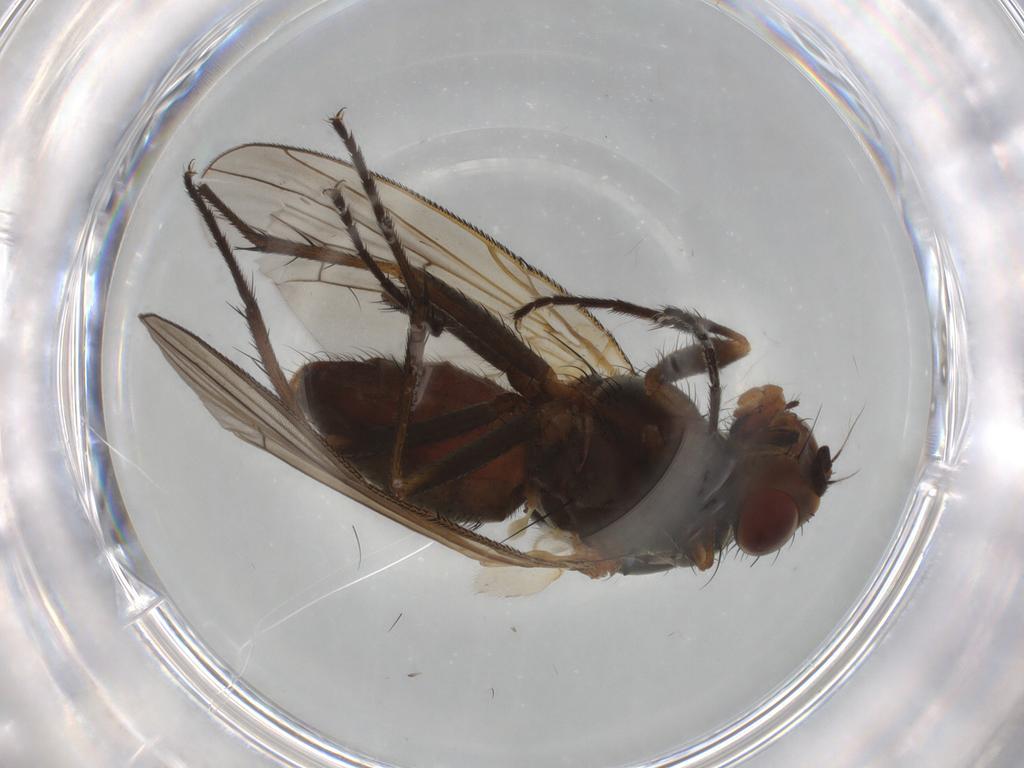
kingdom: Animalia
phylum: Arthropoda
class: Insecta
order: Diptera
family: Anthomyiidae
